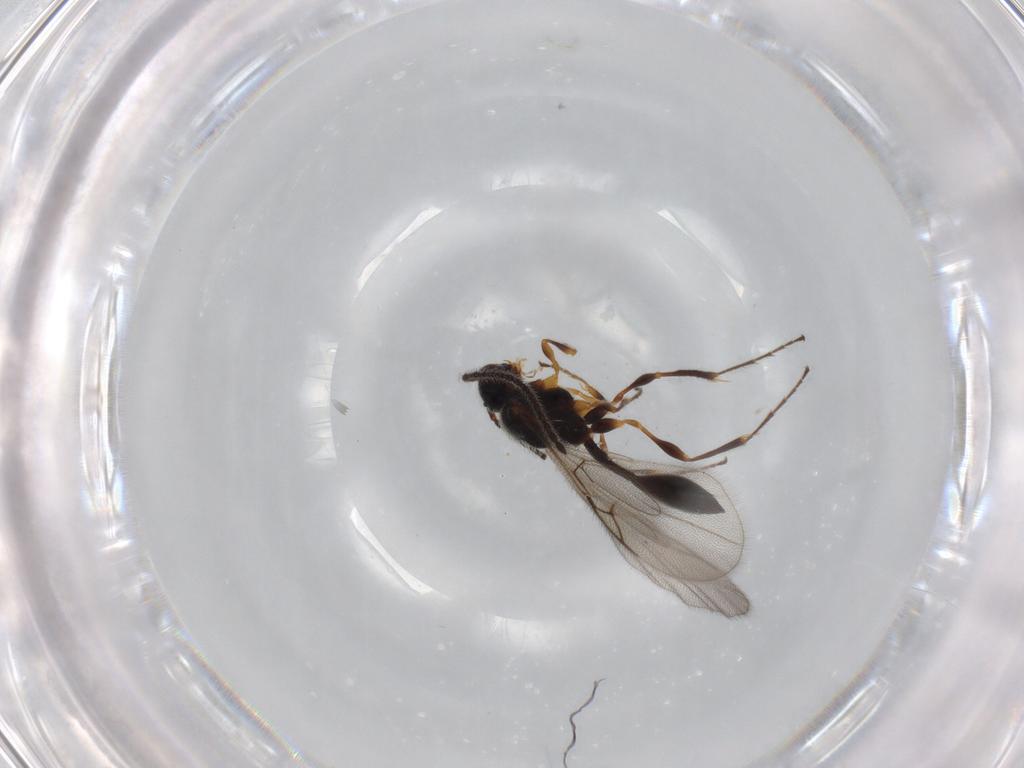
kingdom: Animalia
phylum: Arthropoda
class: Insecta
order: Hymenoptera
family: Diapriidae
